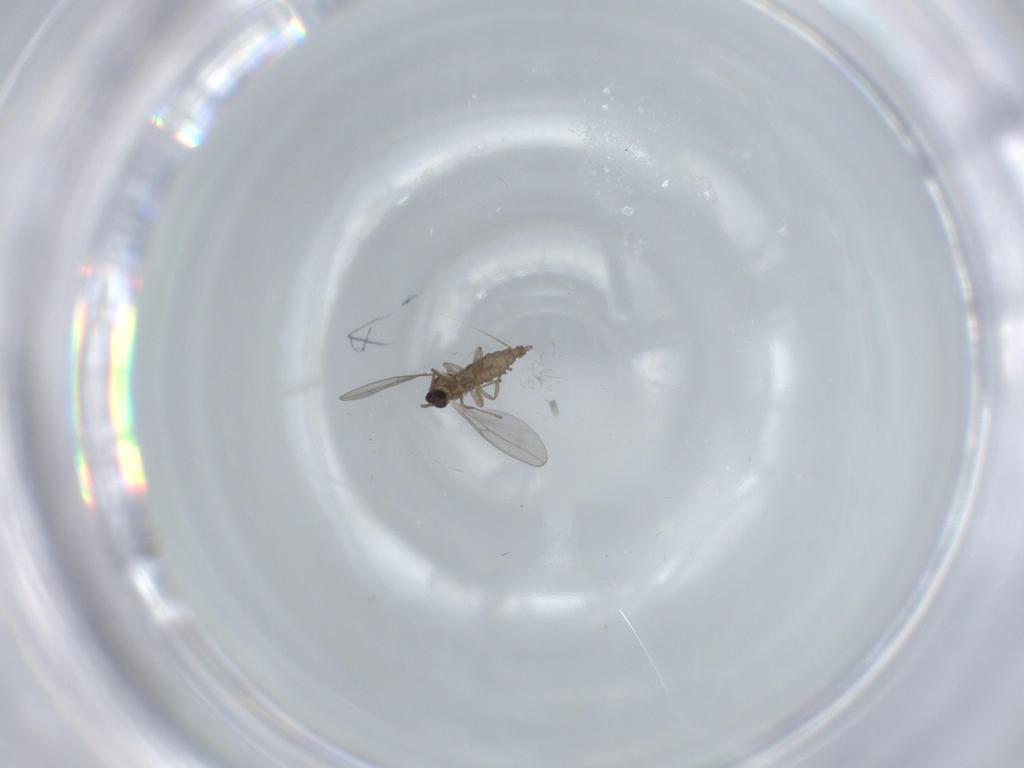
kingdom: Animalia
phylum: Arthropoda
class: Insecta
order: Diptera
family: Cecidomyiidae
